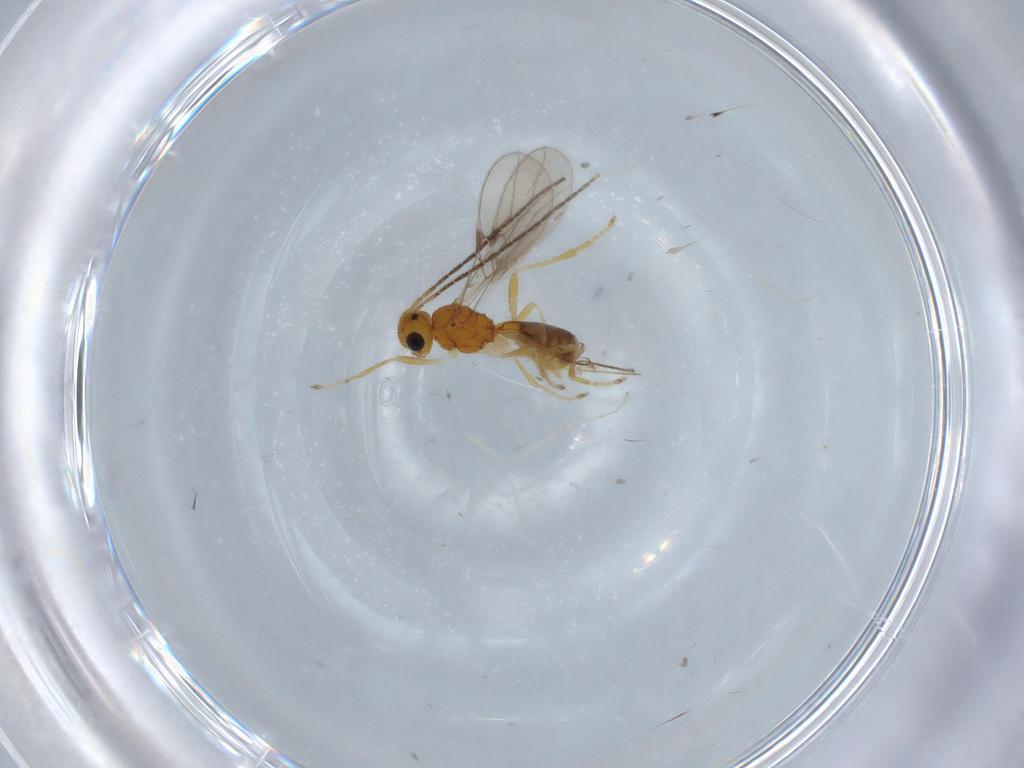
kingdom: Animalia
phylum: Arthropoda
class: Insecta
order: Hymenoptera
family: Braconidae
